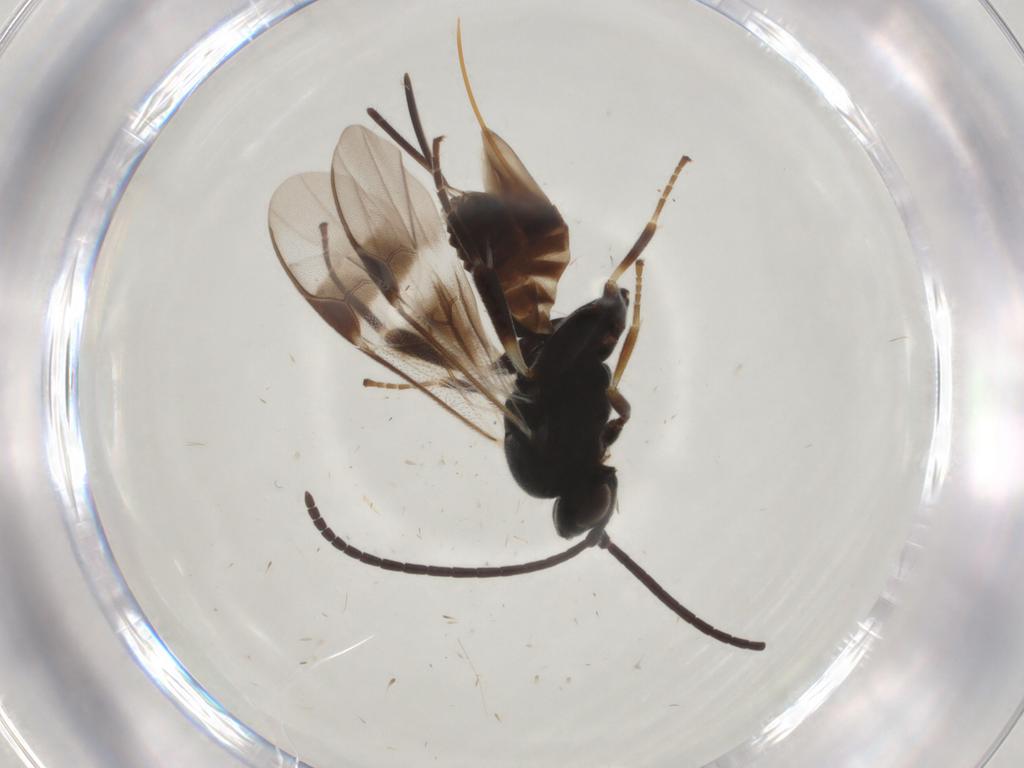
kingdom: Animalia
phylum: Arthropoda
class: Insecta
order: Hymenoptera
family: Braconidae
